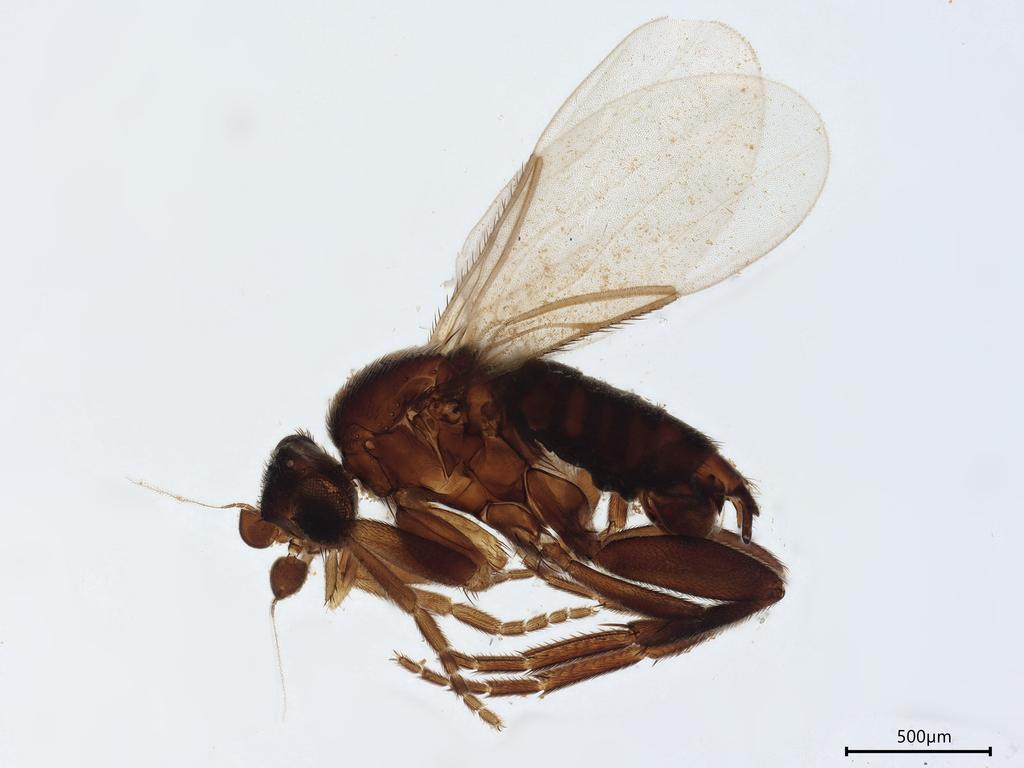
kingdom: Animalia
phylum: Arthropoda
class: Insecta
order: Diptera
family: Phoridae
